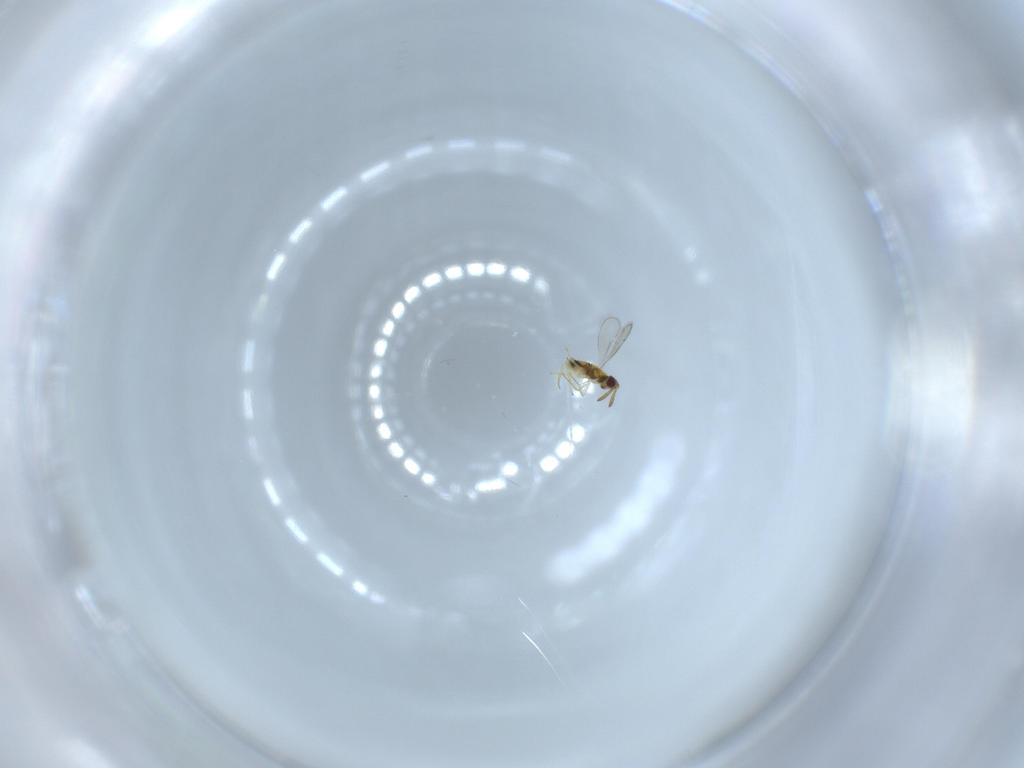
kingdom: Animalia
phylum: Arthropoda
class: Insecta
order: Hymenoptera
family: Aphelinidae
